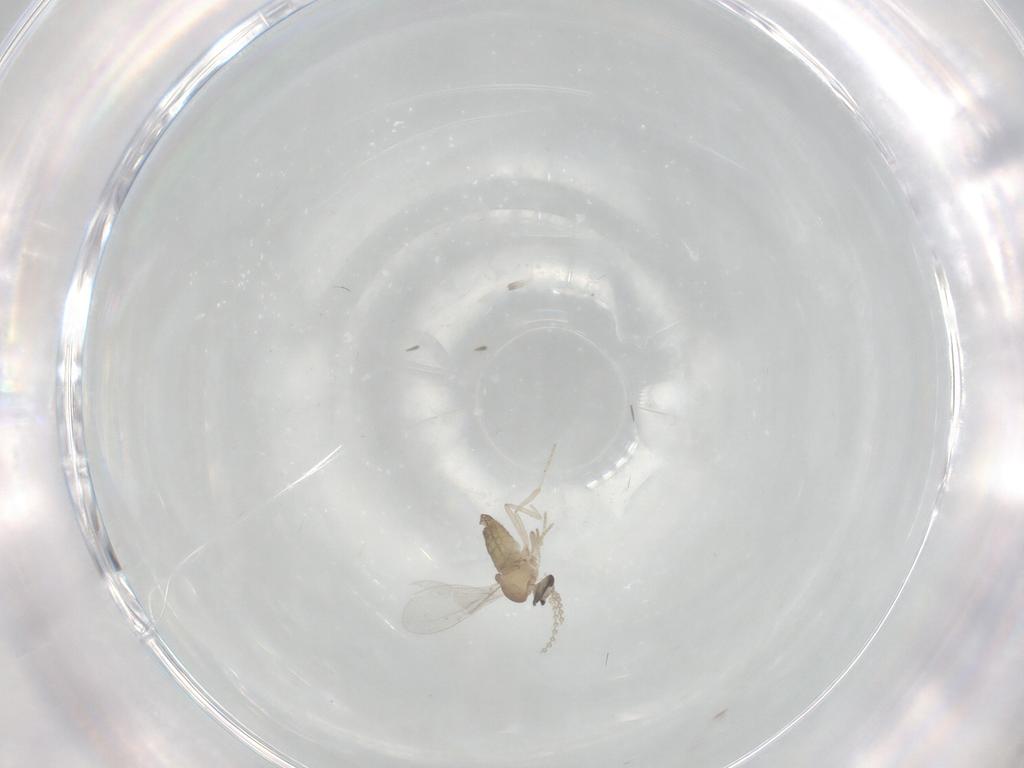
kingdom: Animalia
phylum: Arthropoda
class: Insecta
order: Diptera
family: Cecidomyiidae
